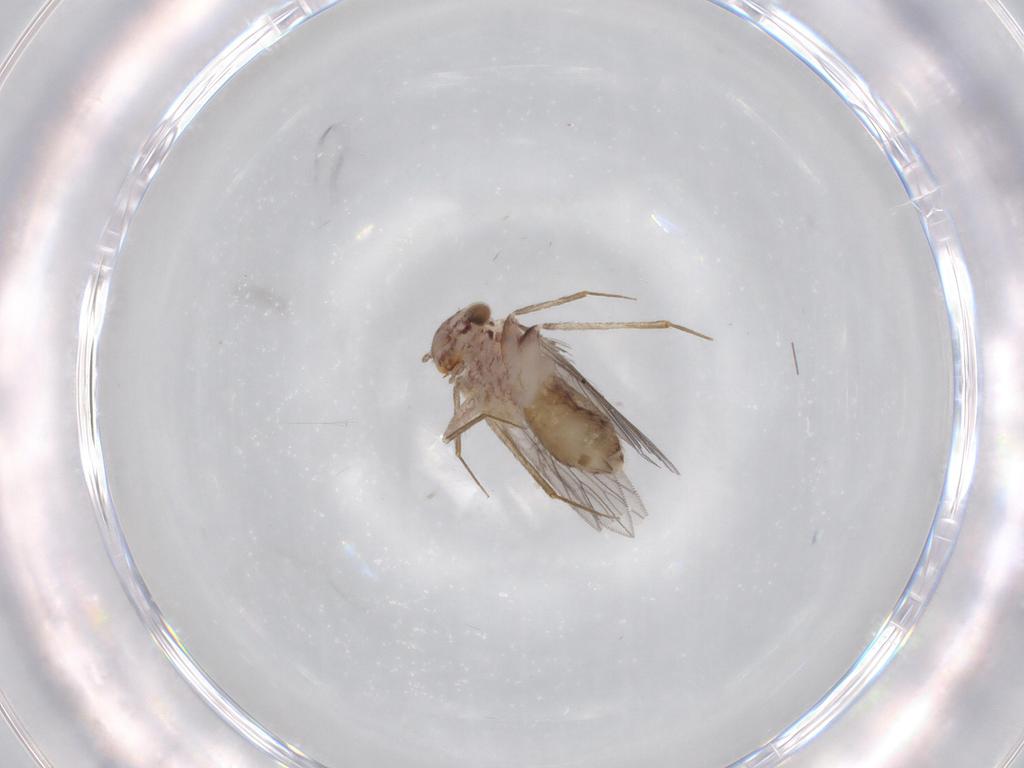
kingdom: Animalia
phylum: Arthropoda
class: Insecta
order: Psocodea
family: Lepidopsocidae
